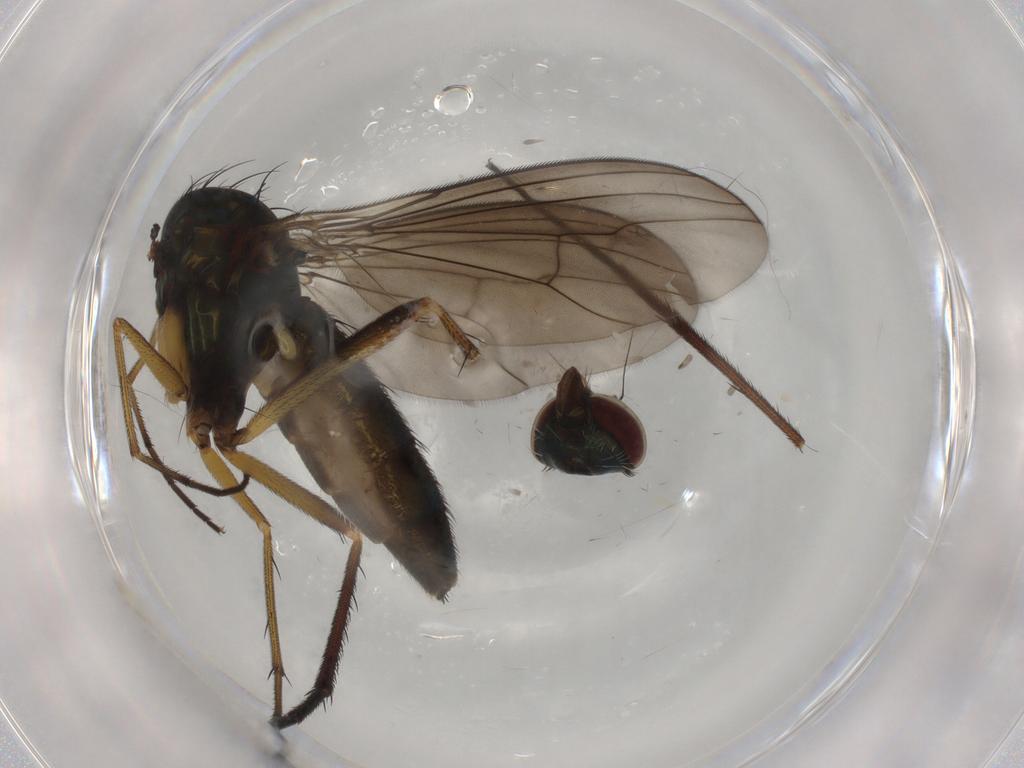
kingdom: Animalia
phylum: Arthropoda
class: Insecta
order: Diptera
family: Dolichopodidae
